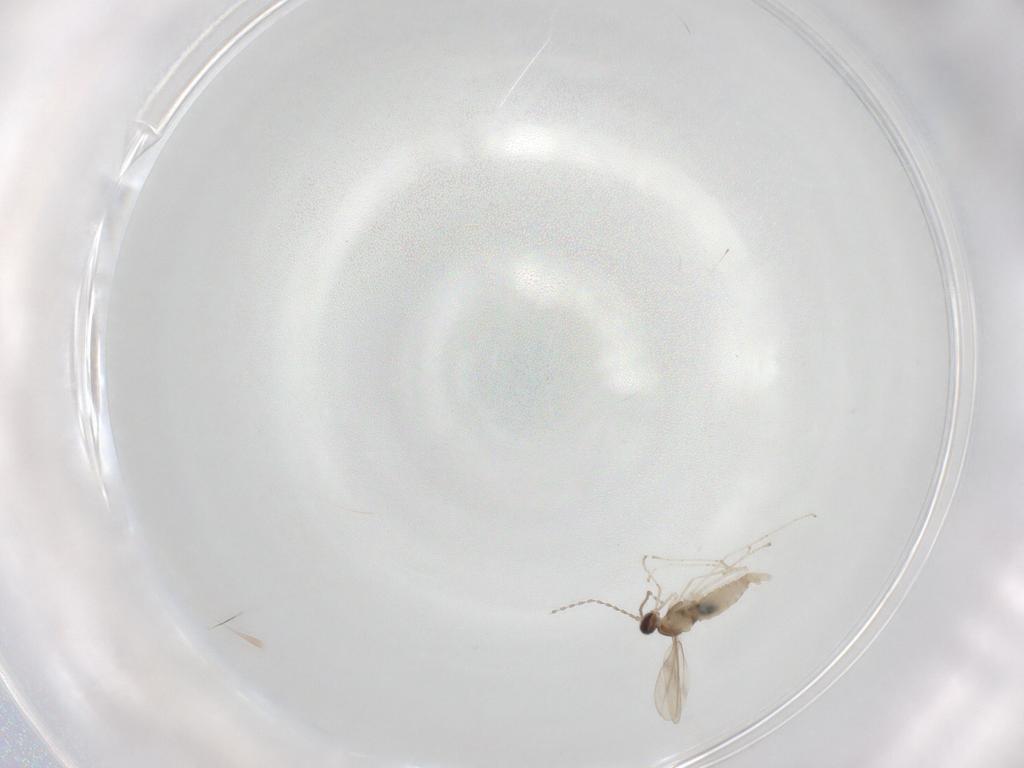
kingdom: Animalia
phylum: Arthropoda
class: Insecta
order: Diptera
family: Cecidomyiidae
